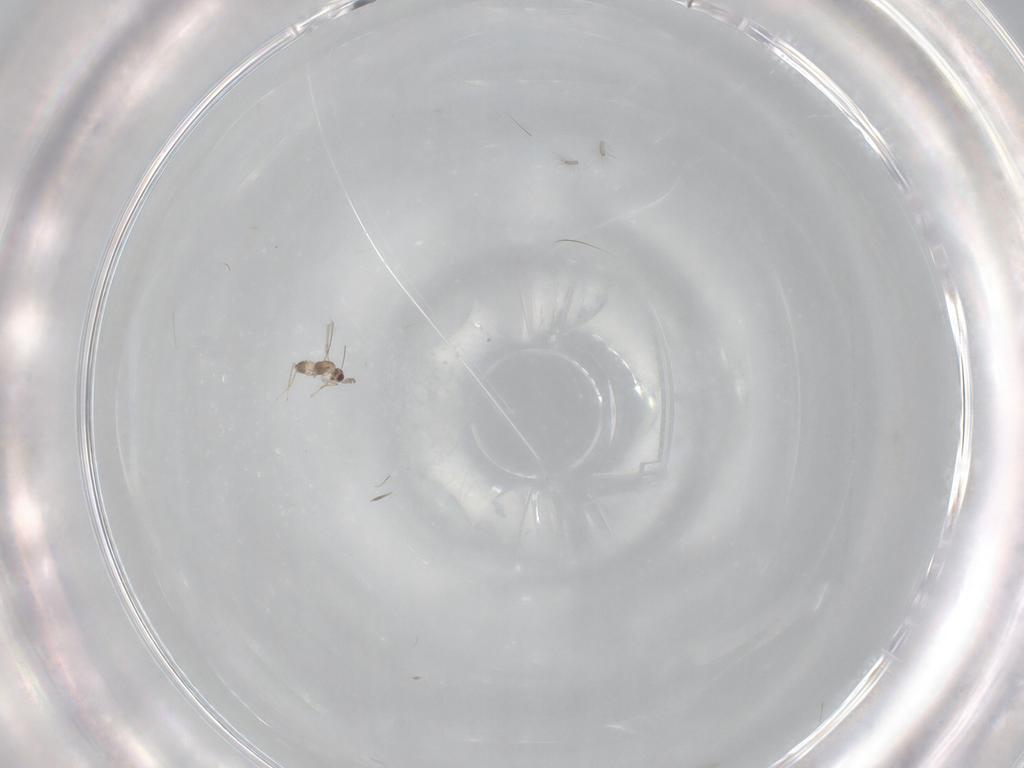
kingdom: Animalia
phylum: Arthropoda
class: Insecta
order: Hymenoptera
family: Mymaridae
